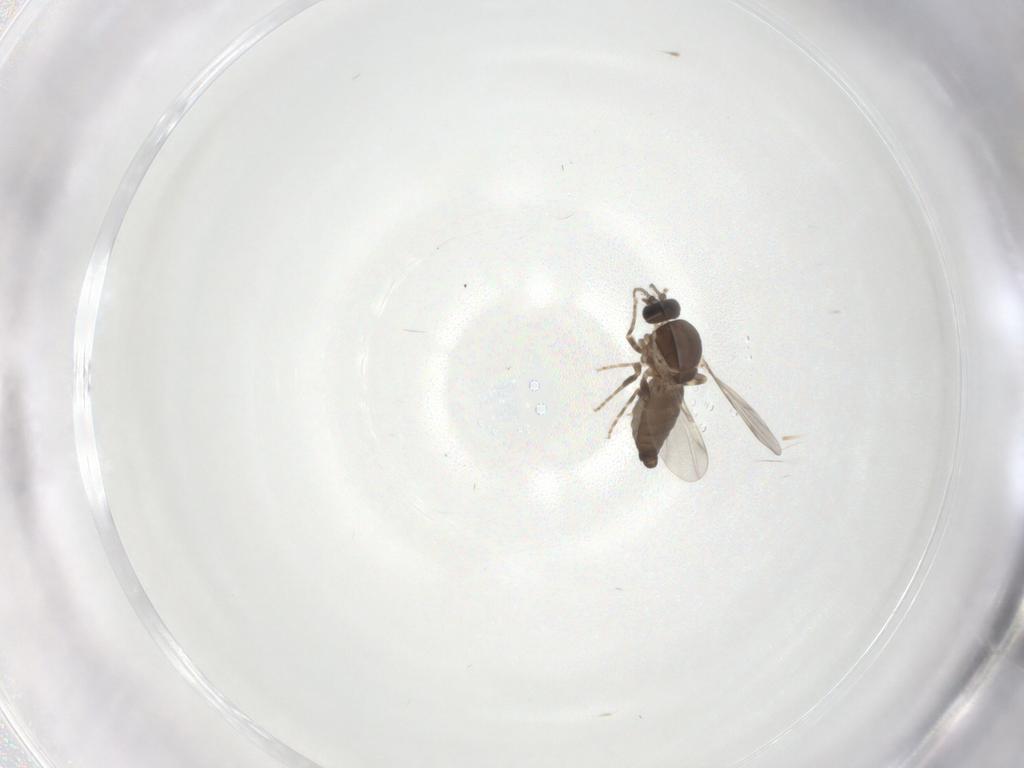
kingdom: Animalia
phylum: Arthropoda
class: Insecta
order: Diptera
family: Ceratopogonidae
